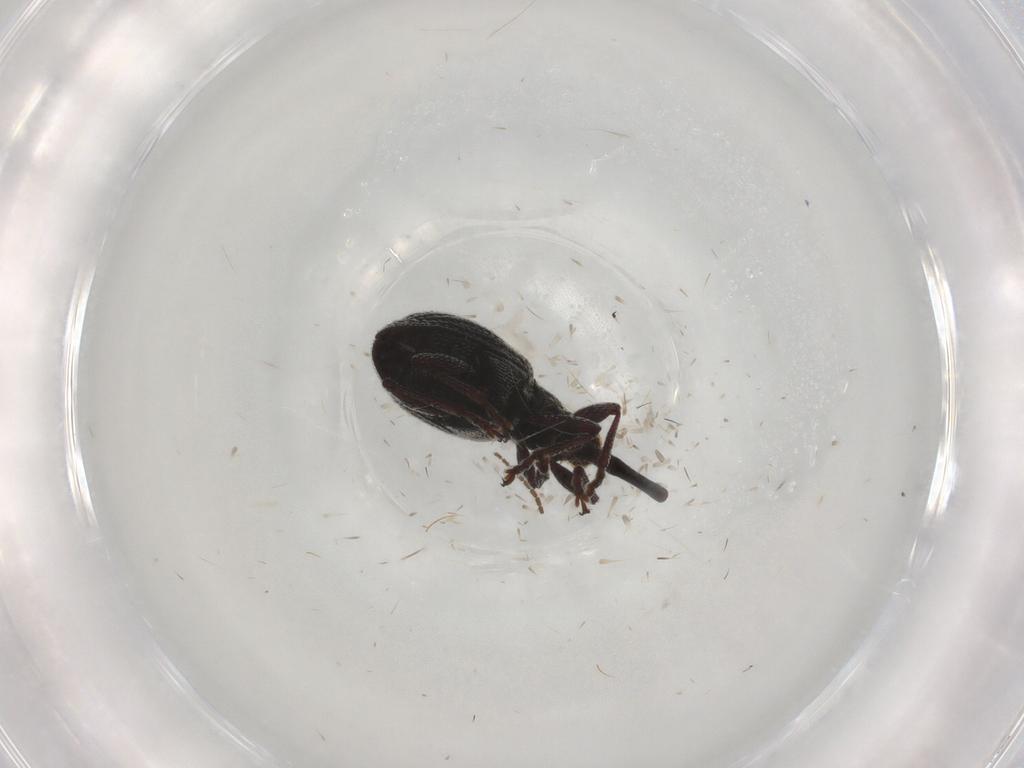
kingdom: Animalia
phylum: Arthropoda
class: Insecta
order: Coleoptera
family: Brentidae
